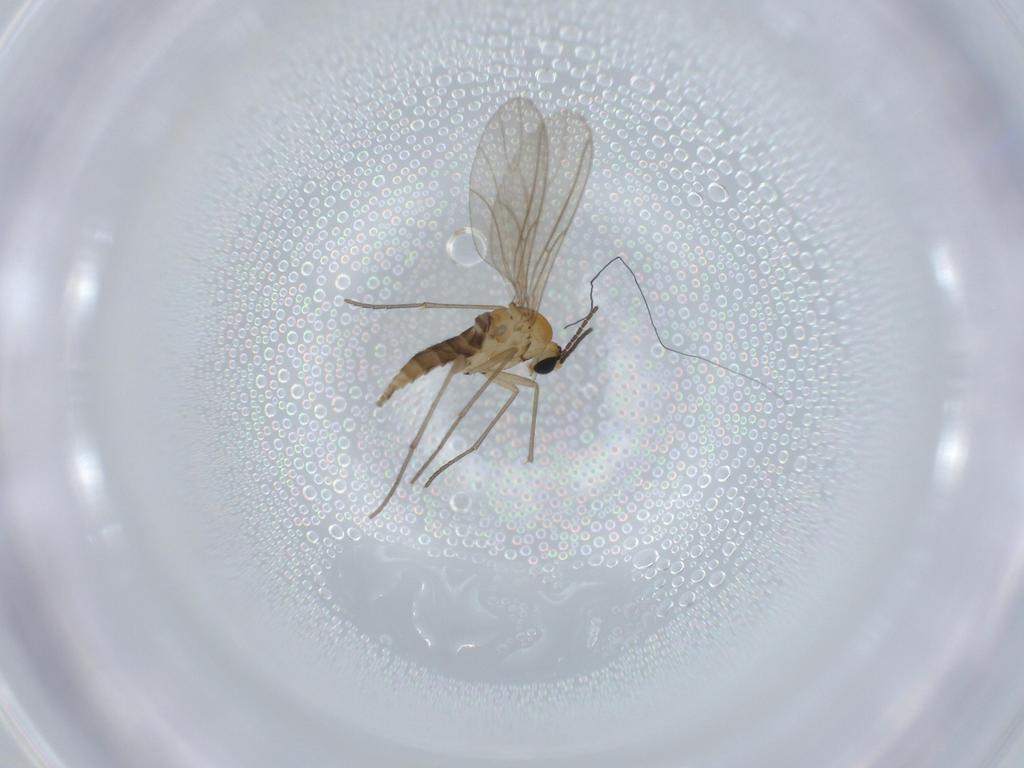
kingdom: Animalia
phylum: Arthropoda
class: Insecta
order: Diptera
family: Sciaridae
